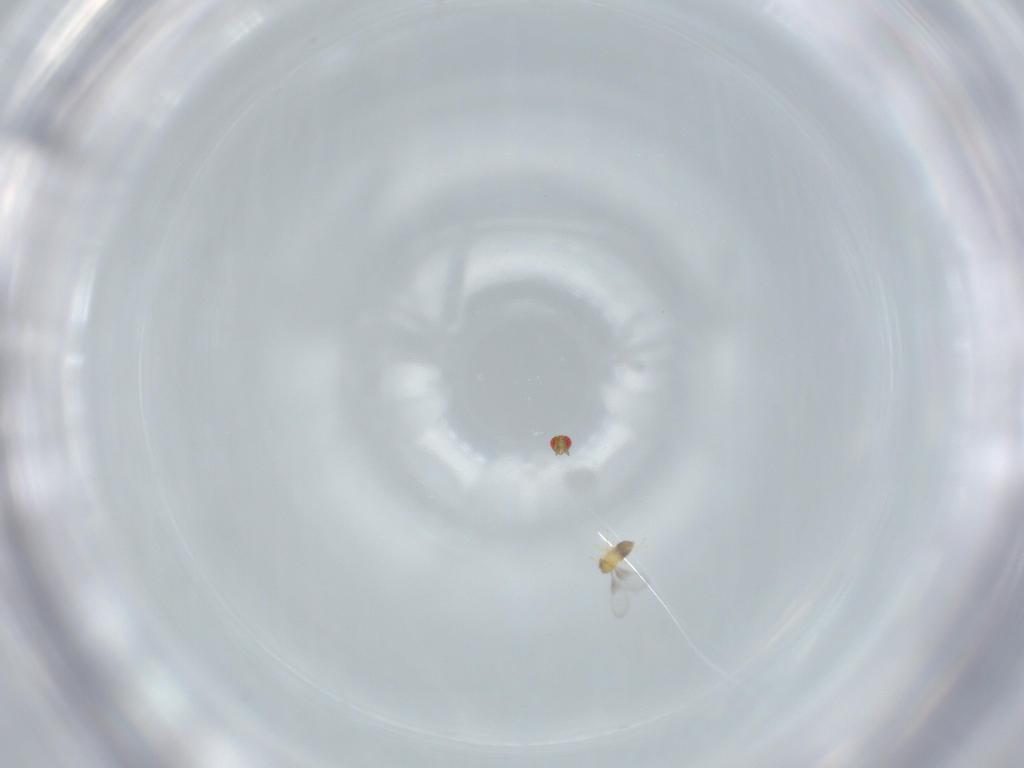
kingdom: Animalia
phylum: Arthropoda
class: Insecta
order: Hymenoptera
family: Trichogrammatidae
